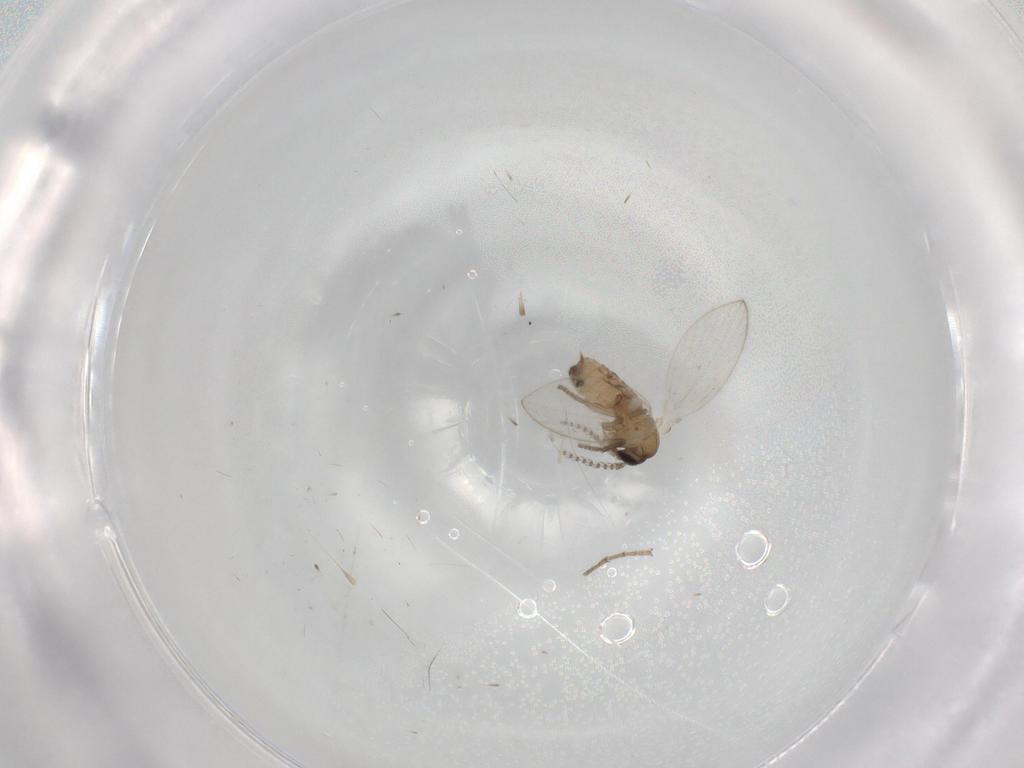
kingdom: Animalia
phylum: Arthropoda
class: Insecta
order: Diptera
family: Psychodidae
